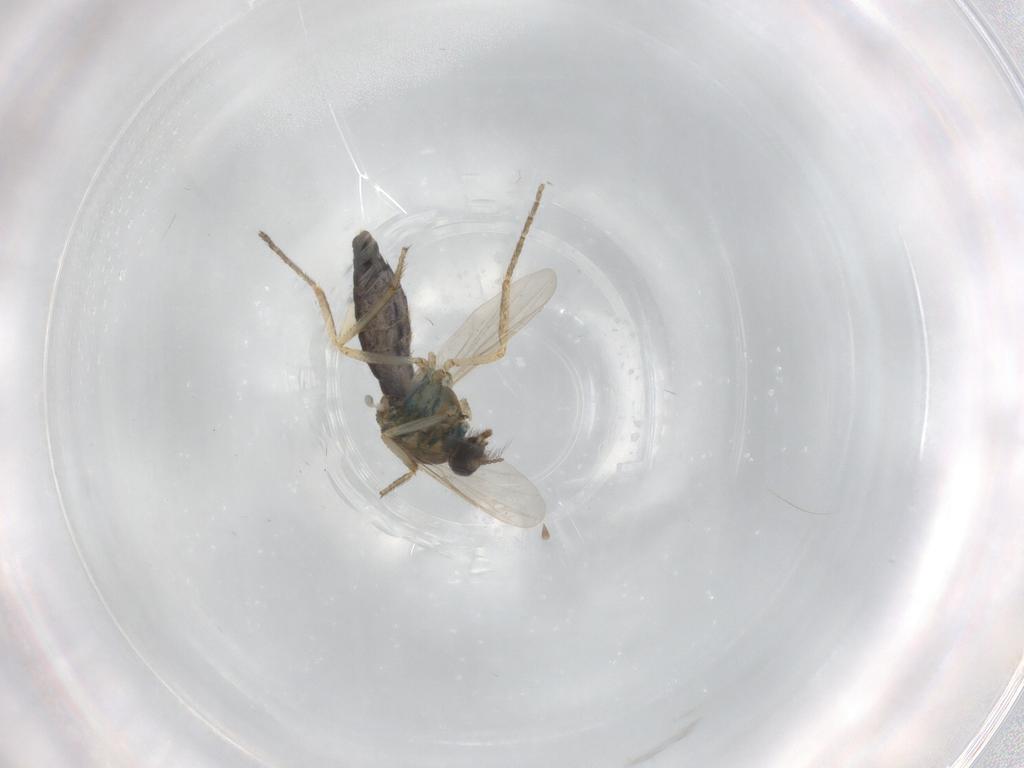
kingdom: Animalia
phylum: Arthropoda
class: Insecta
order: Diptera
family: Ceratopogonidae
